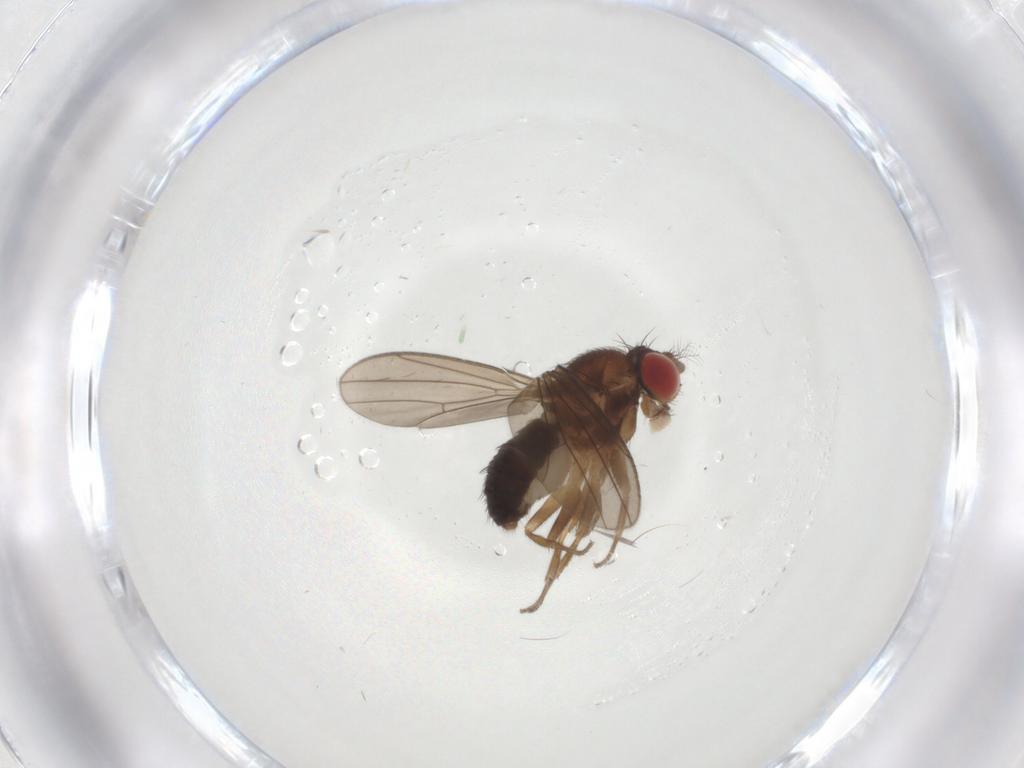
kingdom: Animalia
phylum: Arthropoda
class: Insecta
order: Diptera
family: Drosophilidae
